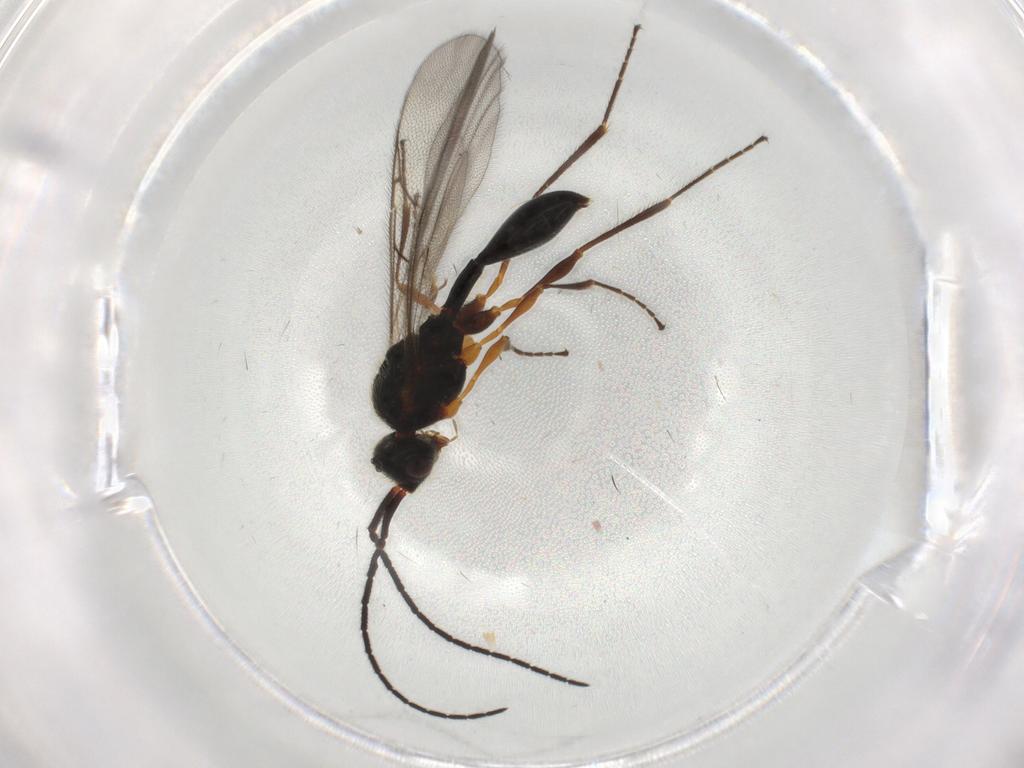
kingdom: Animalia
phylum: Arthropoda
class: Insecta
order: Hymenoptera
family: Diapriidae
